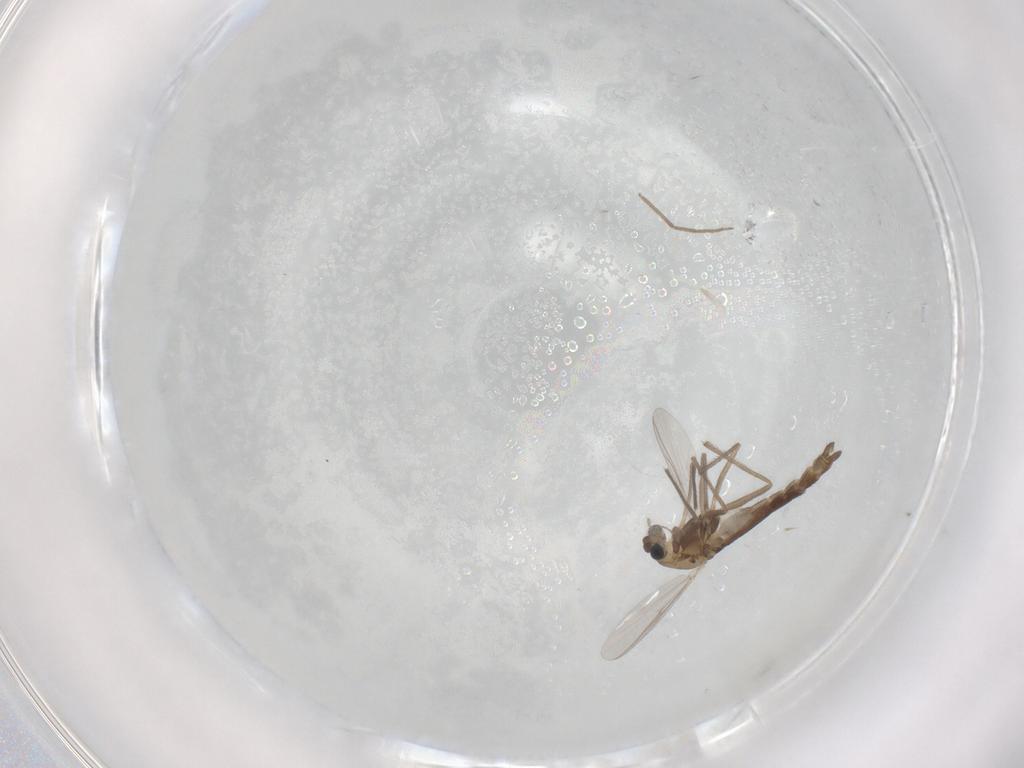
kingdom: Animalia
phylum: Arthropoda
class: Insecta
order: Diptera
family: Chironomidae
